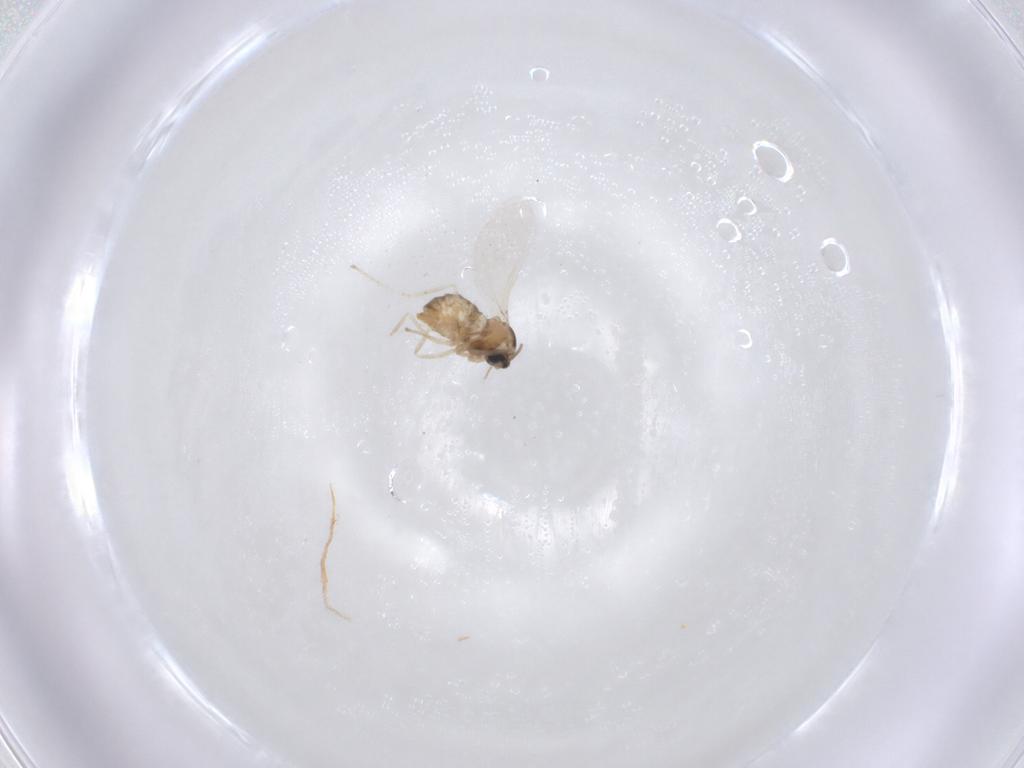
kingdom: Animalia
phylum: Arthropoda
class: Insecta
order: Diptera
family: Cecidomyiidae
